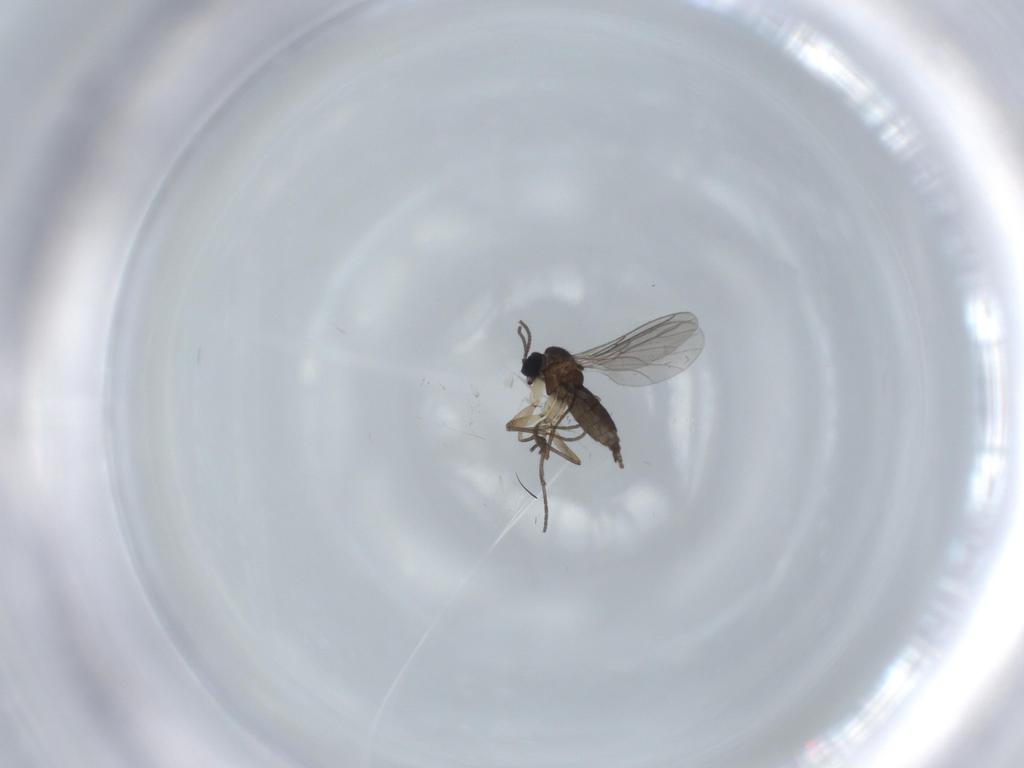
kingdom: Animalia
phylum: Arthropoda
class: Insecta
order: Diptera
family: Sciaridae
